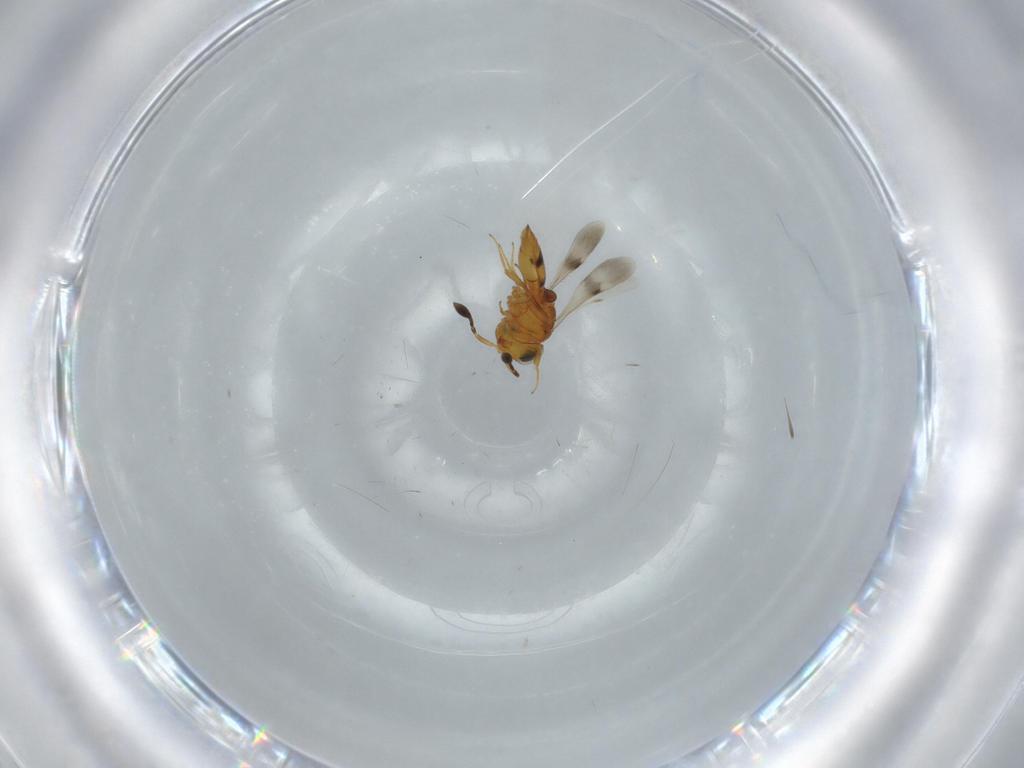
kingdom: Animalia
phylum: Arthropoda
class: Insecta
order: Hymenoptera
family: Scelionidae
